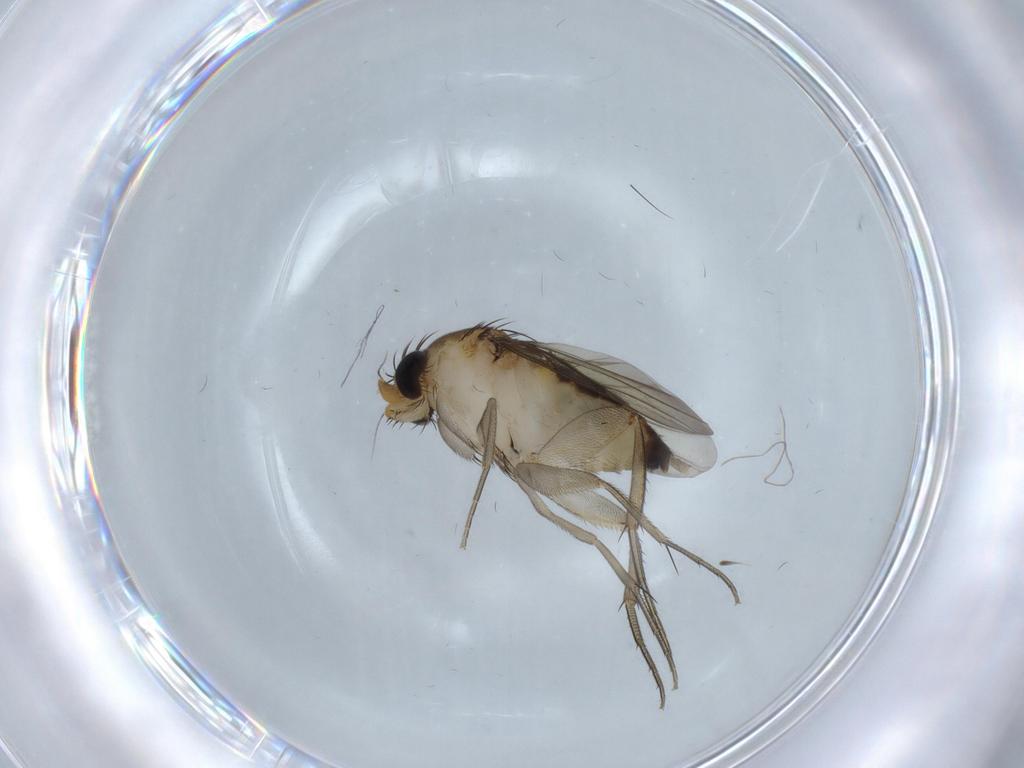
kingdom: Animalia
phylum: Arthropoda
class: Insecta
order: Diptera
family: Phoridae
